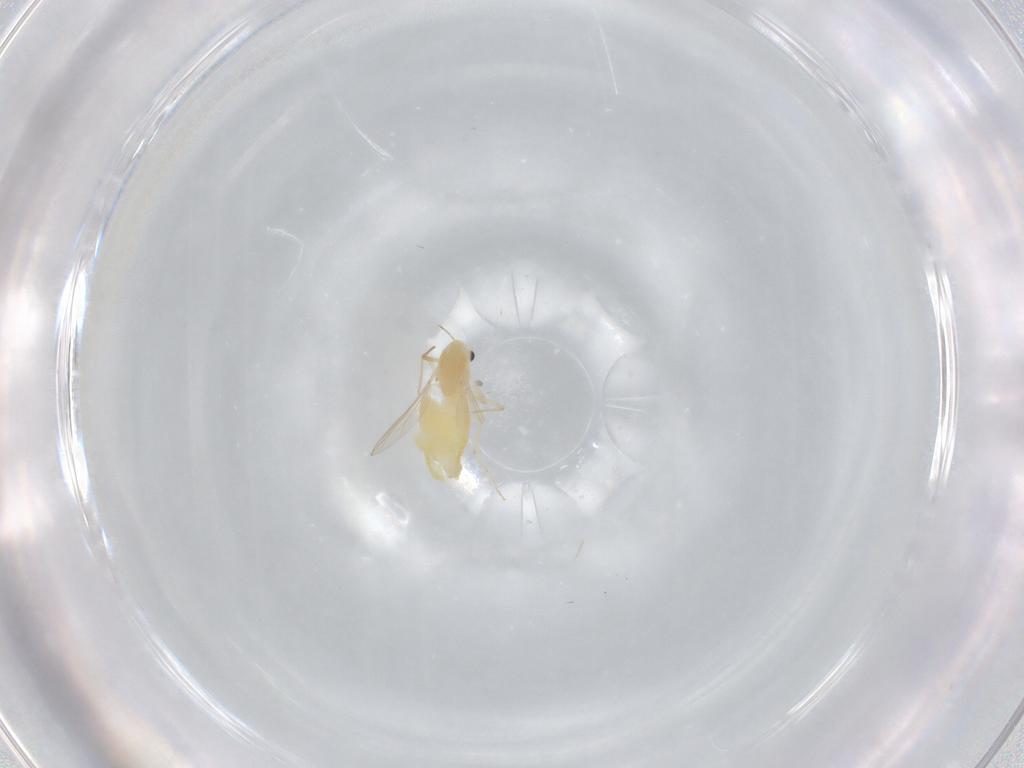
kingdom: Animalia
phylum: Arthropoda
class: Insecta
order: Diptera
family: Chironomidae
